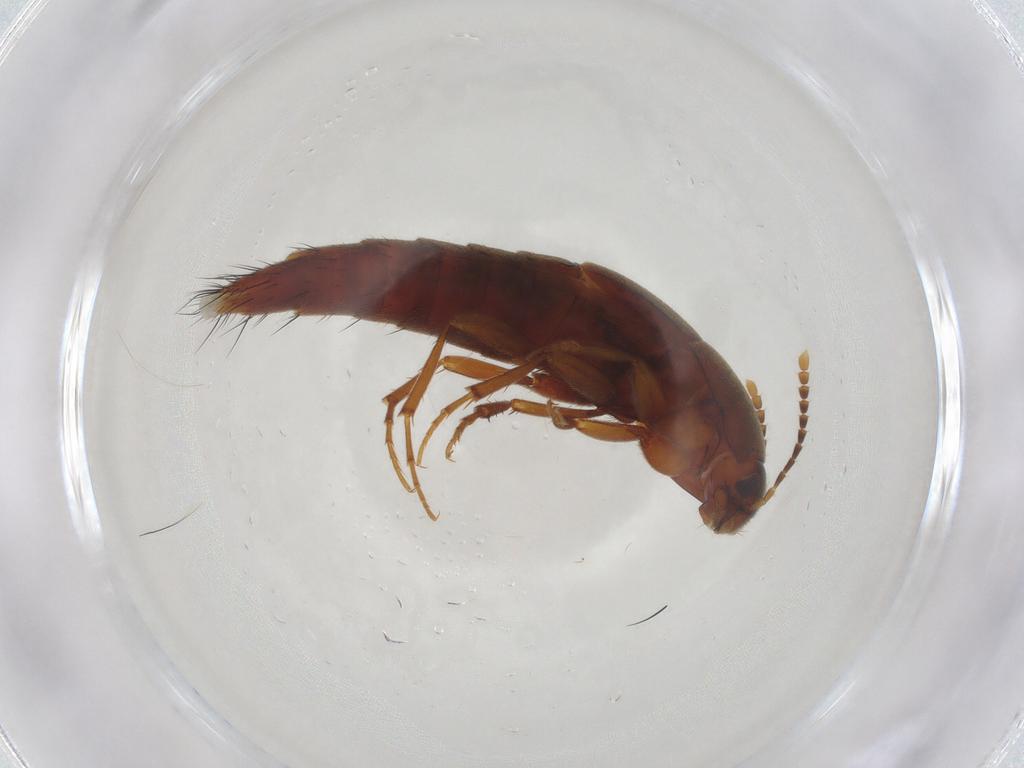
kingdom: Animalia
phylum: Arthropoda
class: Insecta
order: Coleoptera
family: Staphylinidae
